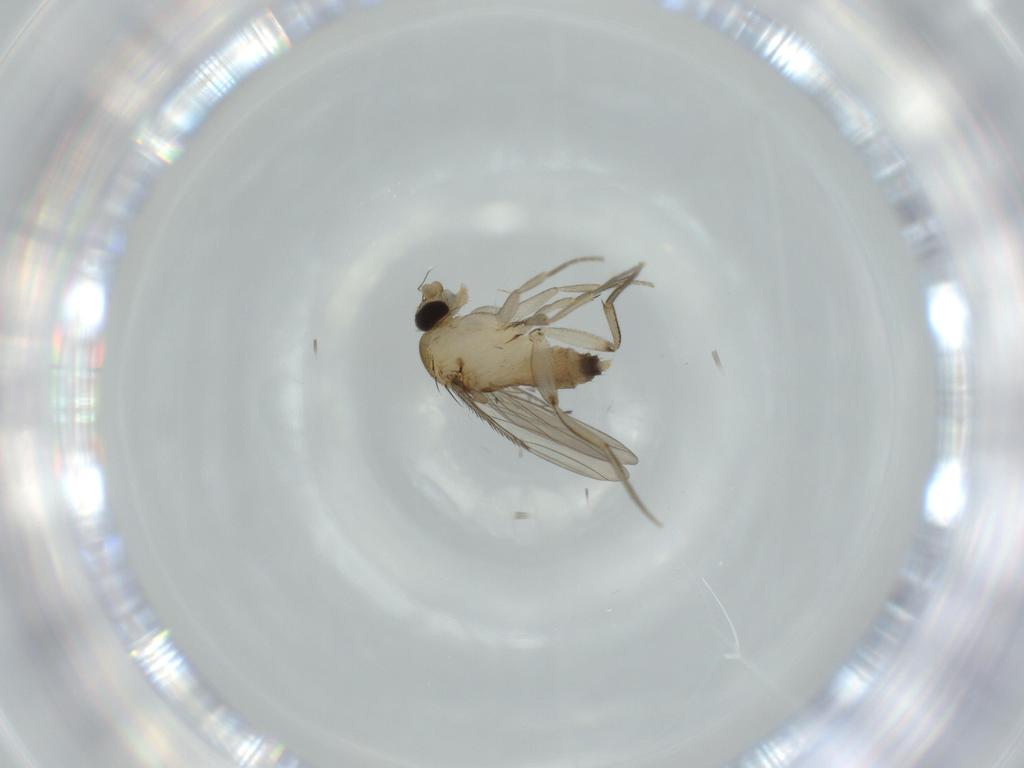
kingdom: Animalia
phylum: Arthropoda
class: Insecta
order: Diptera
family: Phoridae
